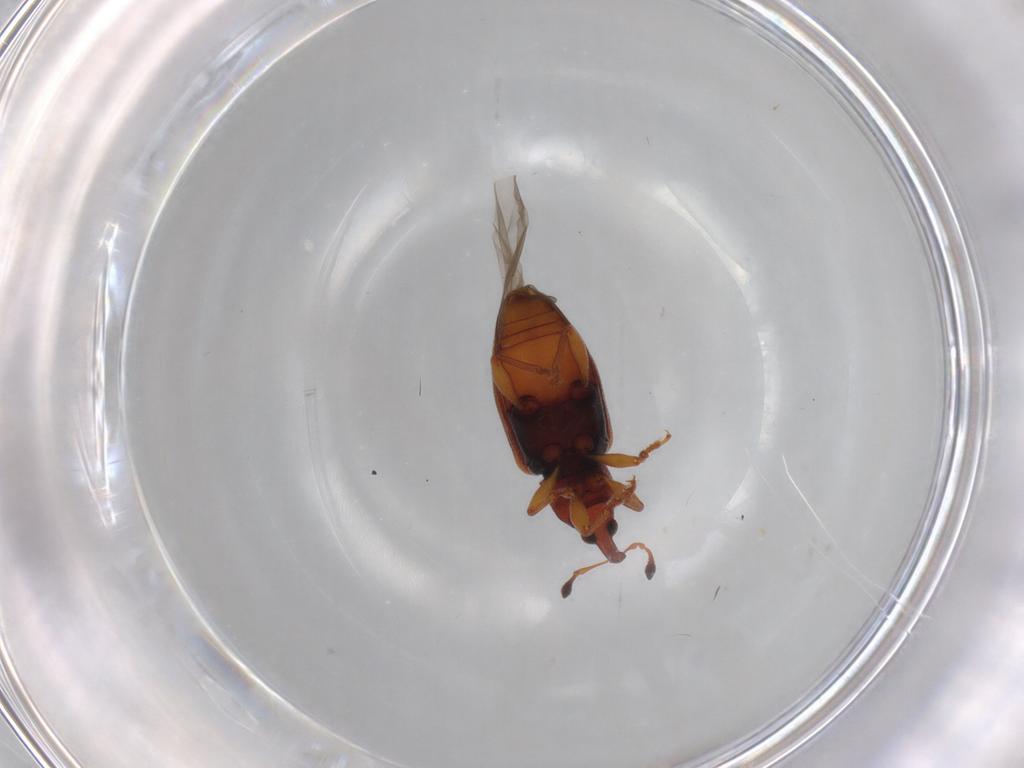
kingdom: Animalia
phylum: Arthropoda
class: Insecta
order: Coleoptera
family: Curculionidae
